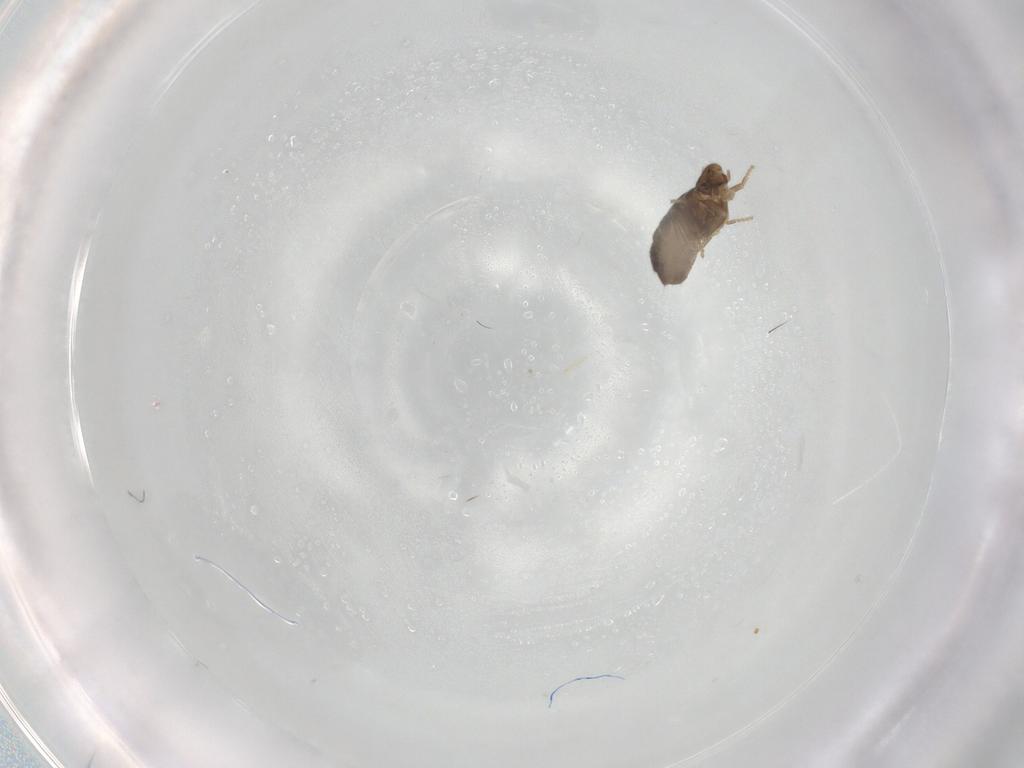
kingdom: Animalia
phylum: Arthropoda
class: Insecta
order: Diptera
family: Phoridae
